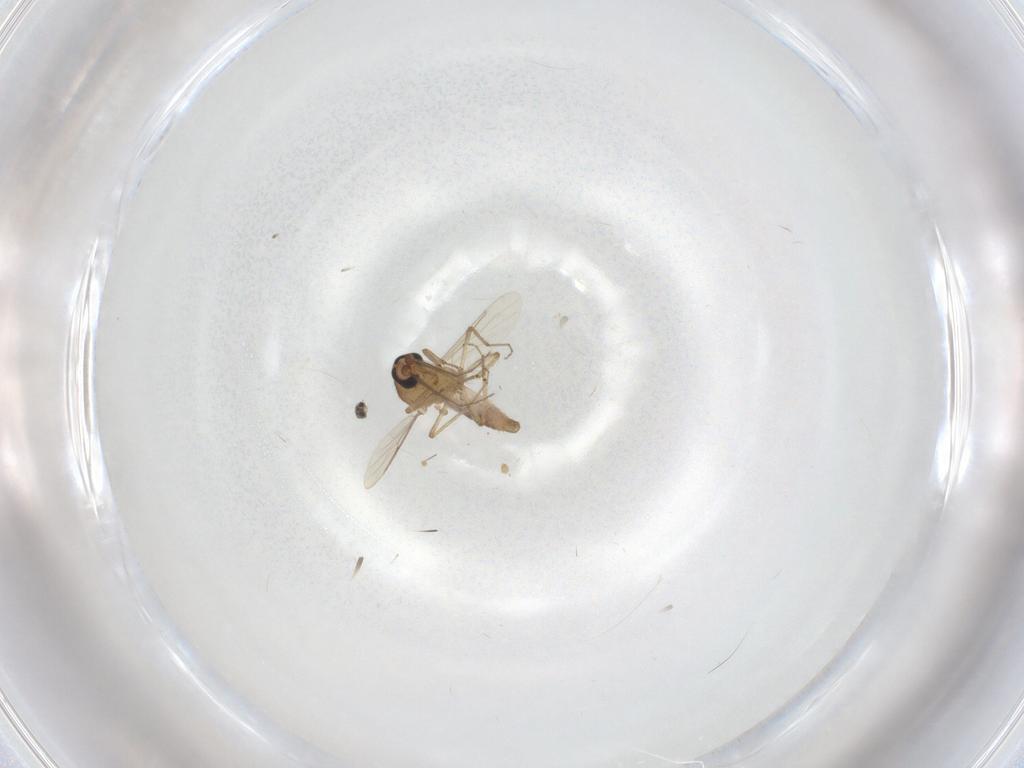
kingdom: Animalia
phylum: Arthropoda
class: Insecta
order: Diptera
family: Ceratopogonidae
